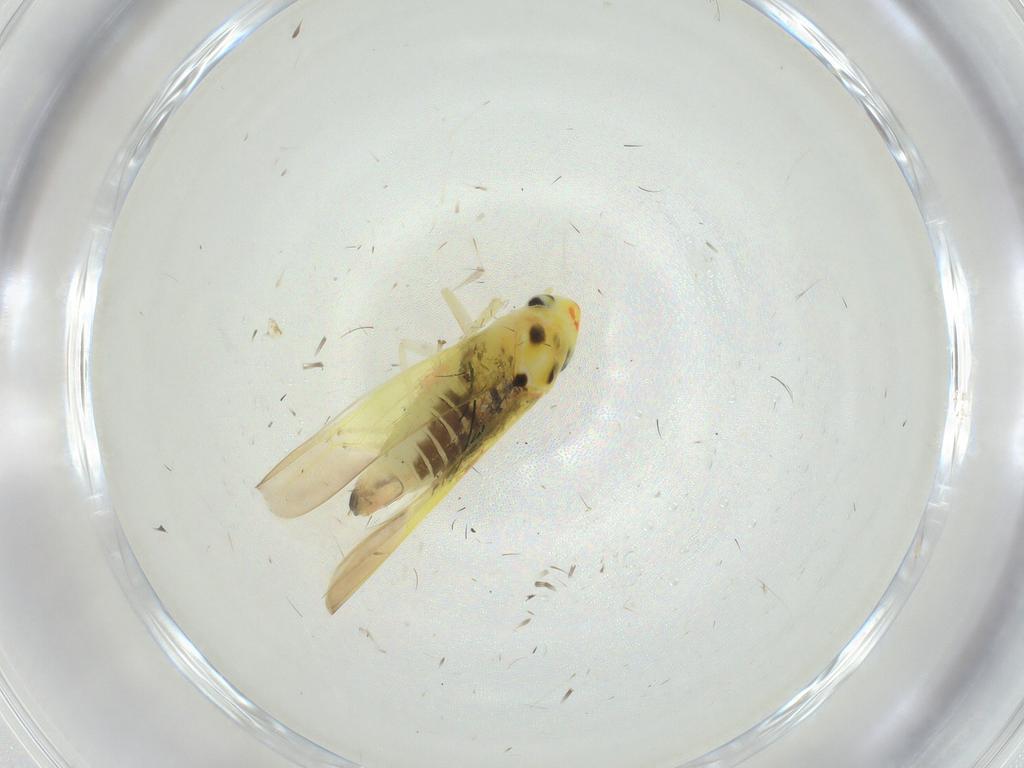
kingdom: Animalia
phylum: Arthropoda
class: Insecta
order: Hemiptera
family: Cicadellidae
